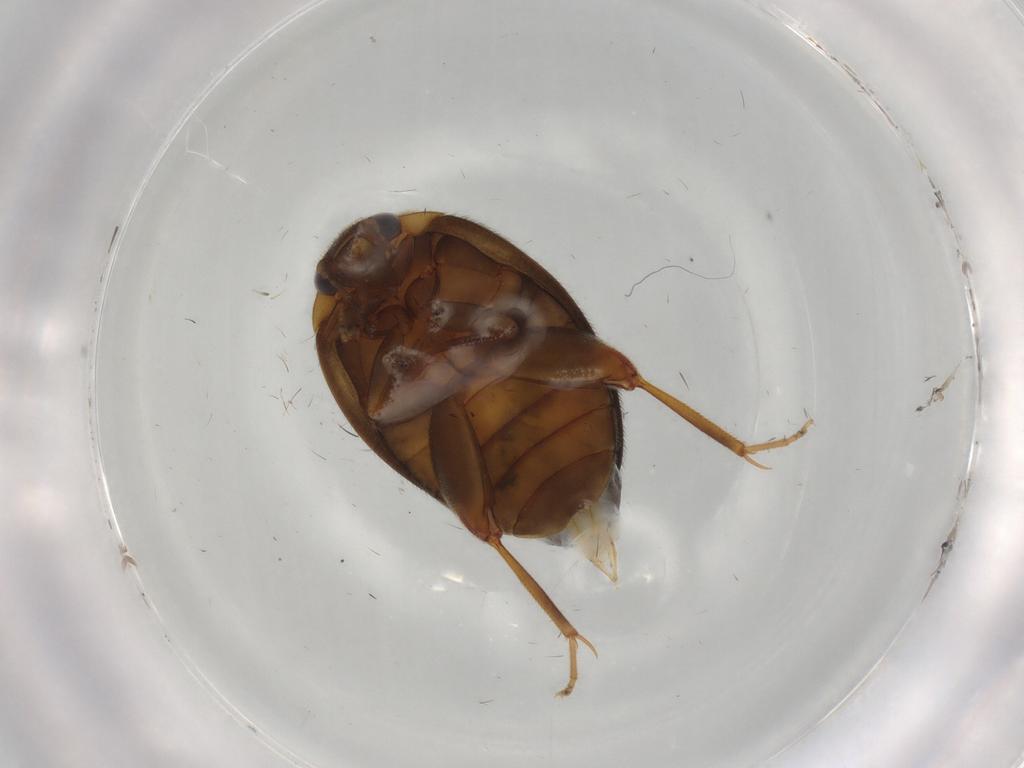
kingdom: Animalia
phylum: Arthropoda
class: Insecta
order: Coleoptera
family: Scirtidae
